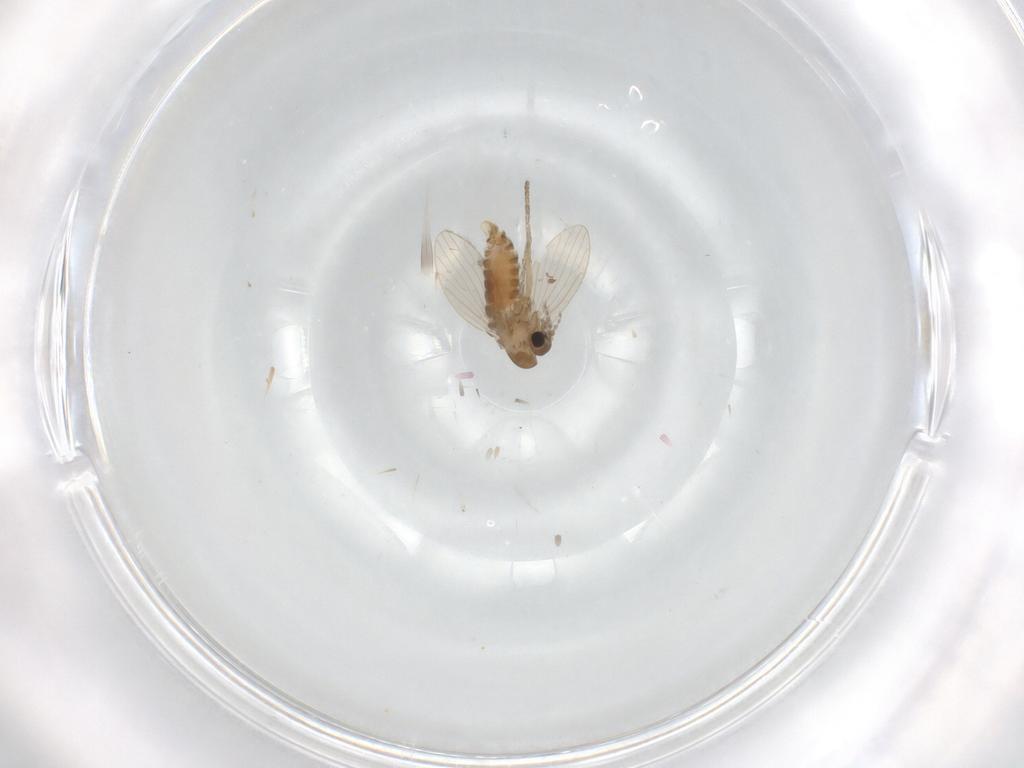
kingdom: Animalia
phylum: Arthropoda
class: Insecta
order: Diptera
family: Psychodidae
